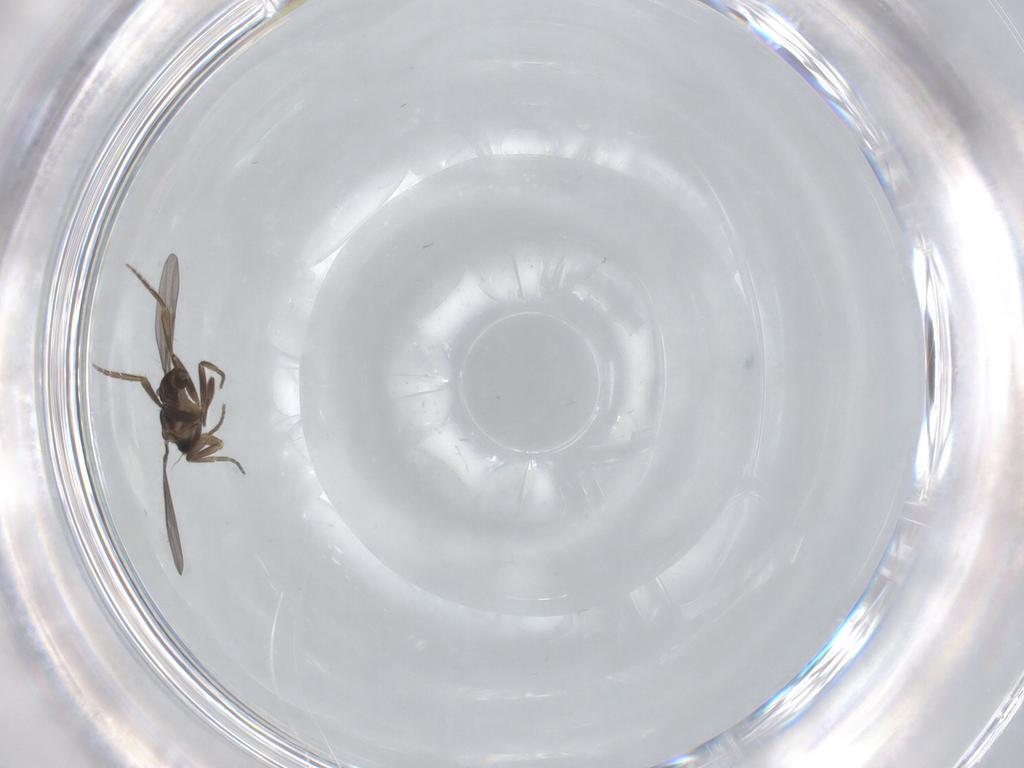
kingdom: Animalia
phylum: Arthropoda
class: Insecta
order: Diptera
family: Phoridae
